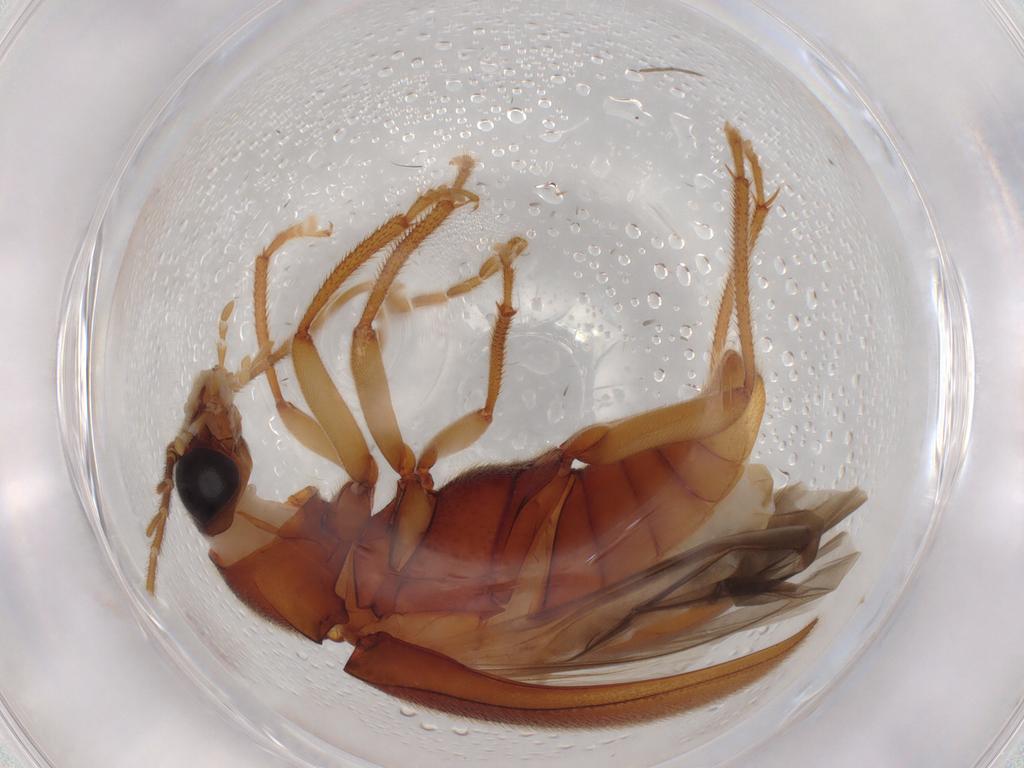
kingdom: Animalia
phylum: Arthropoda
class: Insecta
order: Coleoptera
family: Ptilodactylidae
